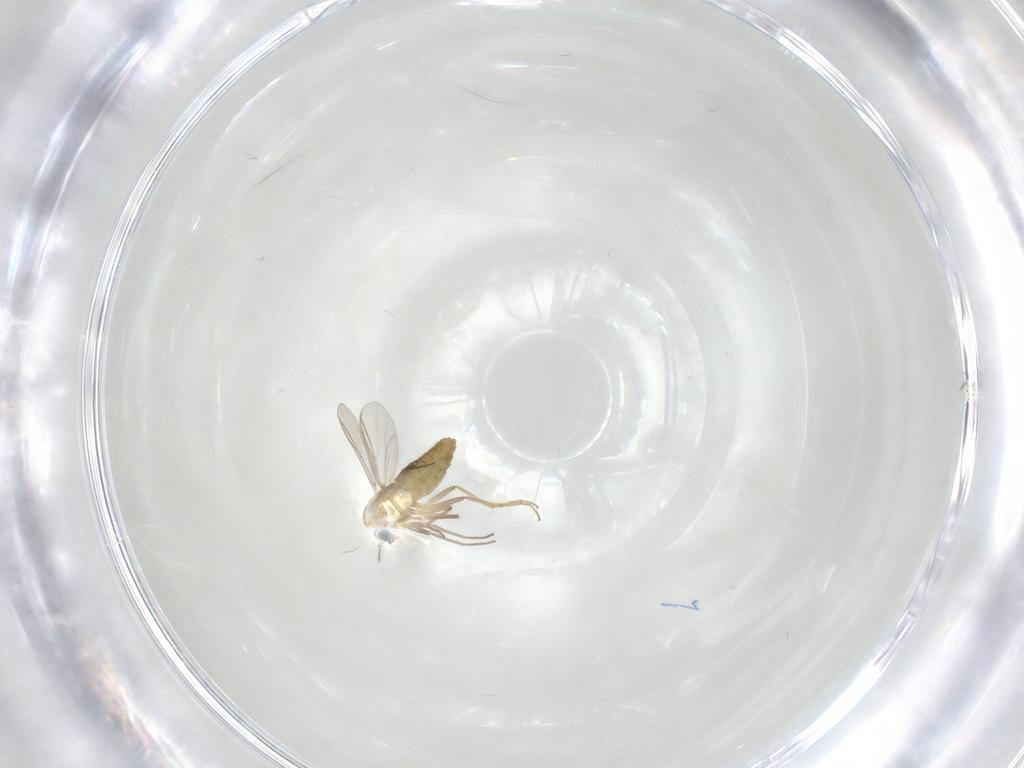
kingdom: Animalia
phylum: Arthropoda
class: Insecta
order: Diptera
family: Chironomidae
